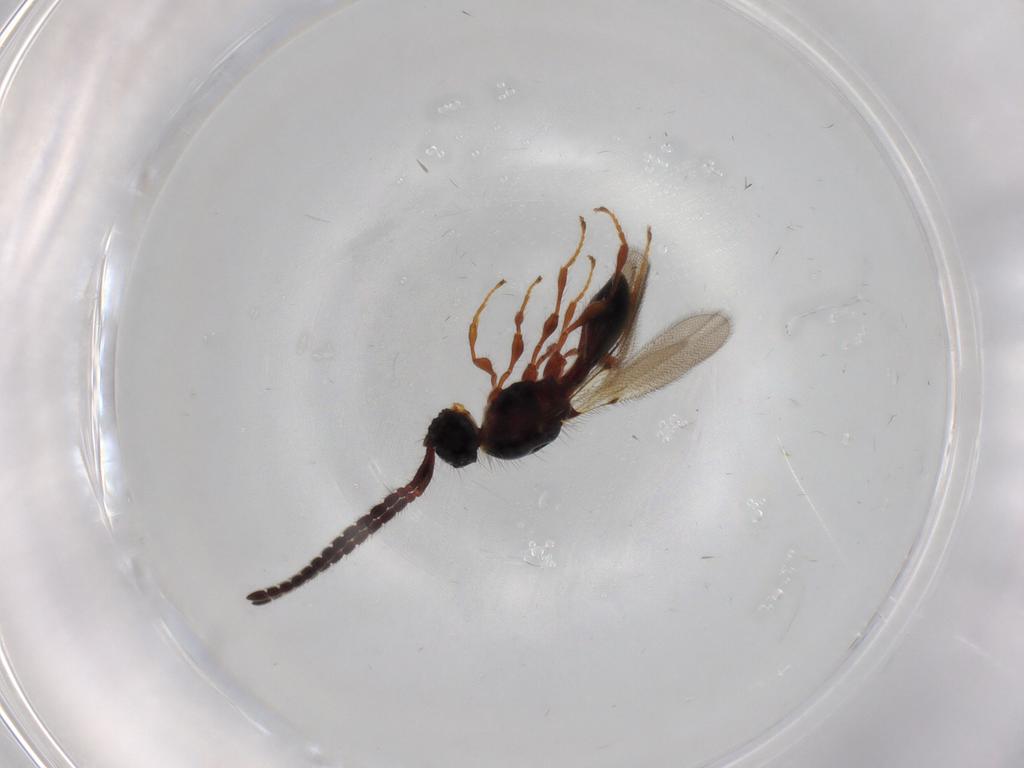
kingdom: Animalia
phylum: Arthropoda
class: Insecta
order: Hymenoptera
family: Diapriidae
